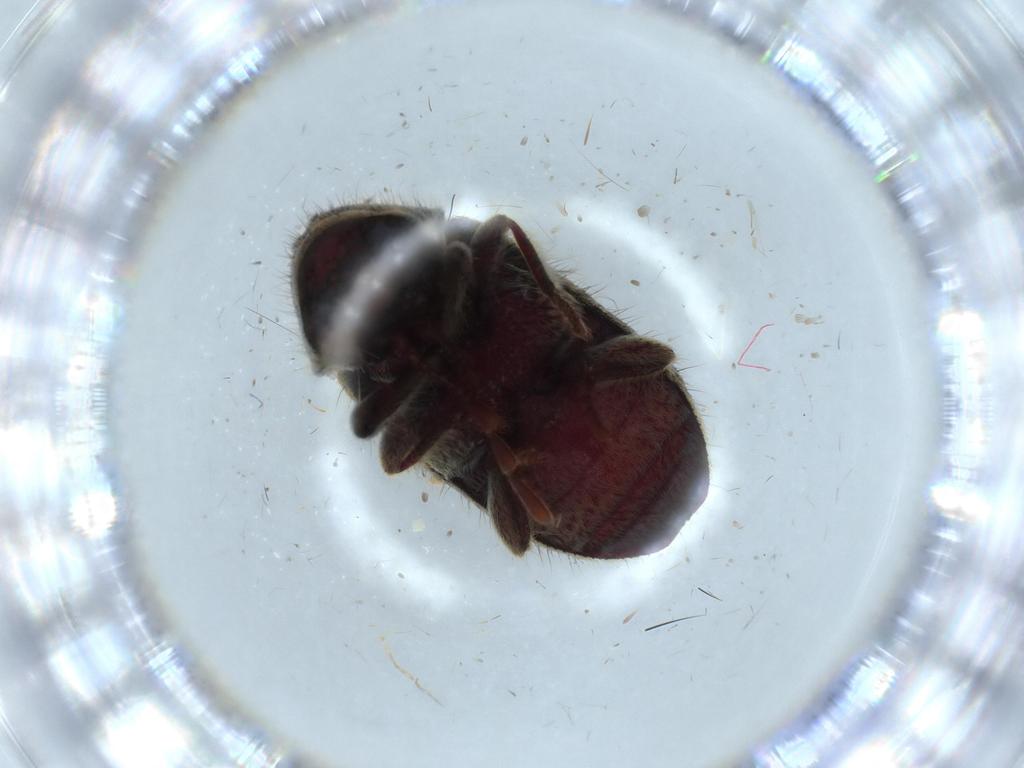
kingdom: Animalia
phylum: Arthropoda
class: Insecta
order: Coleoptera
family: Ptinidae
